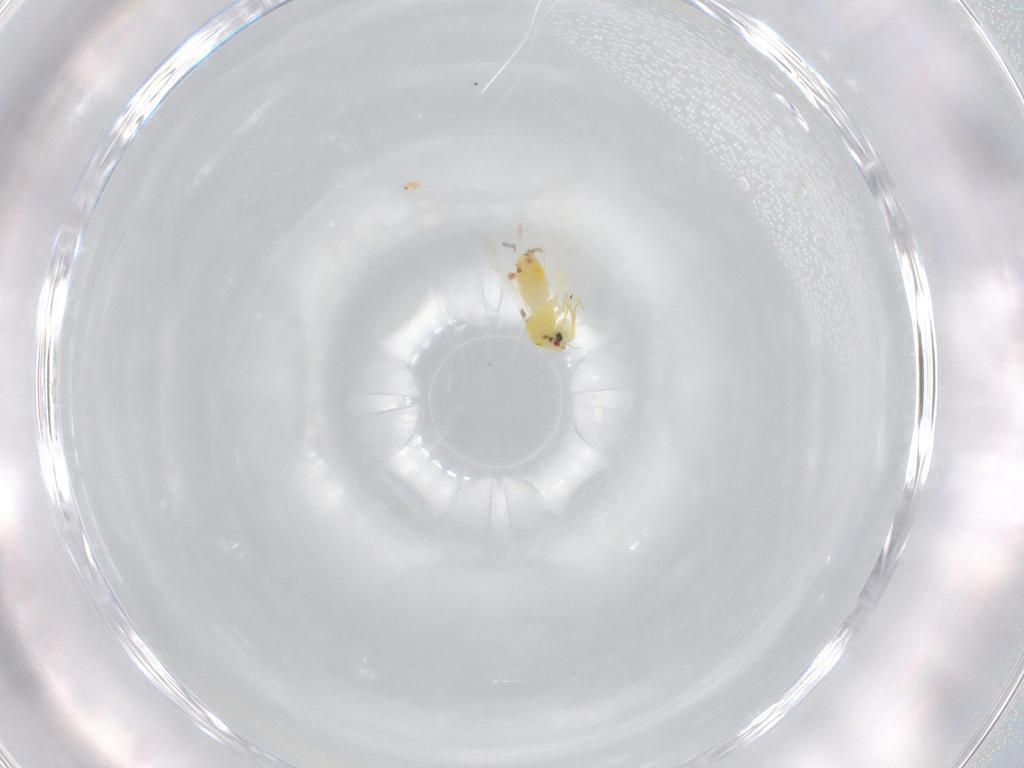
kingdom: Animalia
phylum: Arthropoda
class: Insecta
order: Hemiptera
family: Aleyrodidae
